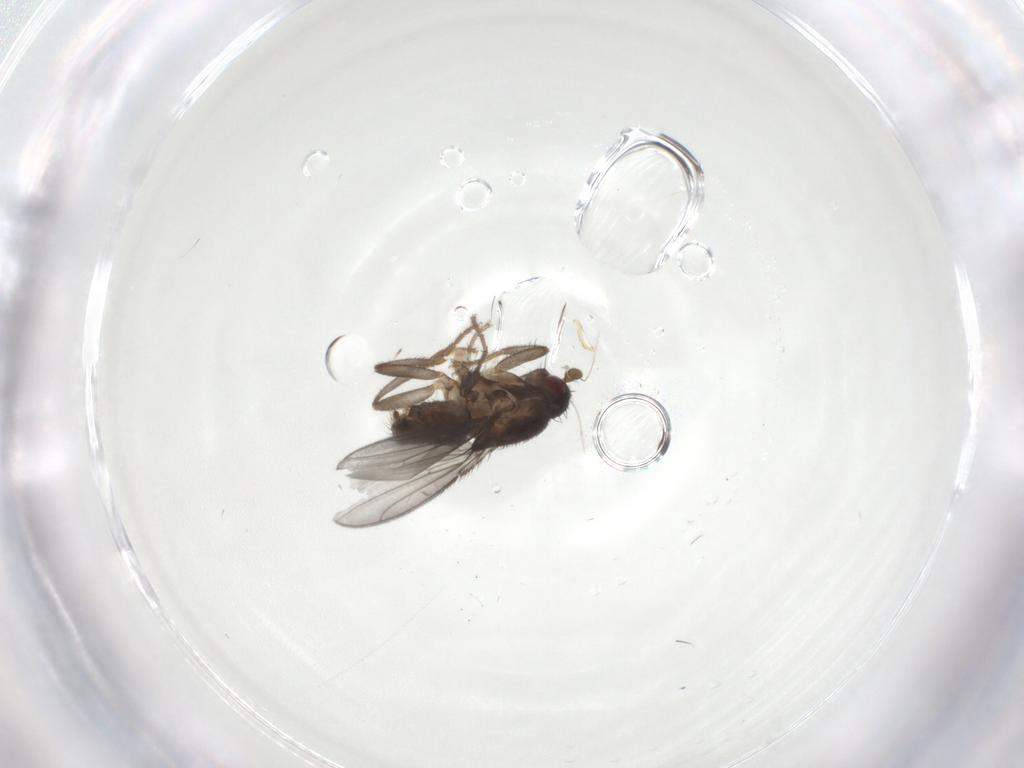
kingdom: Animalia
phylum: Arthropoda
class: Insecta
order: Diptera
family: Sphaeroceridae
